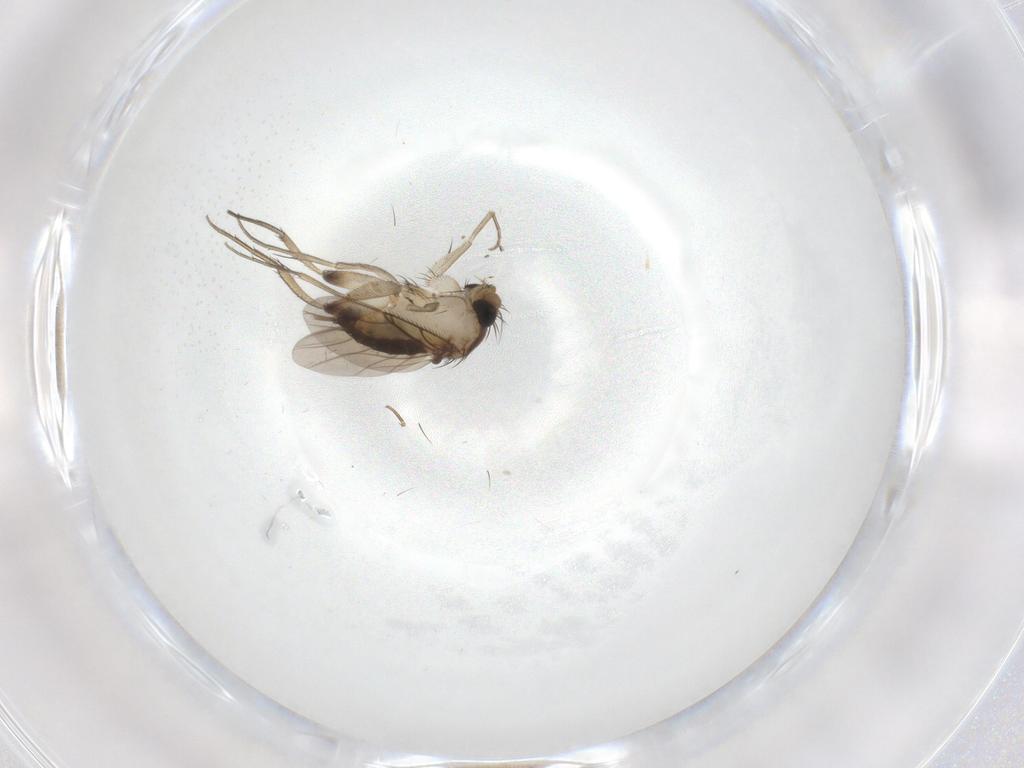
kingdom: Animalia
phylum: Arthropoda
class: Insecta
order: Diptera
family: Phoridae
